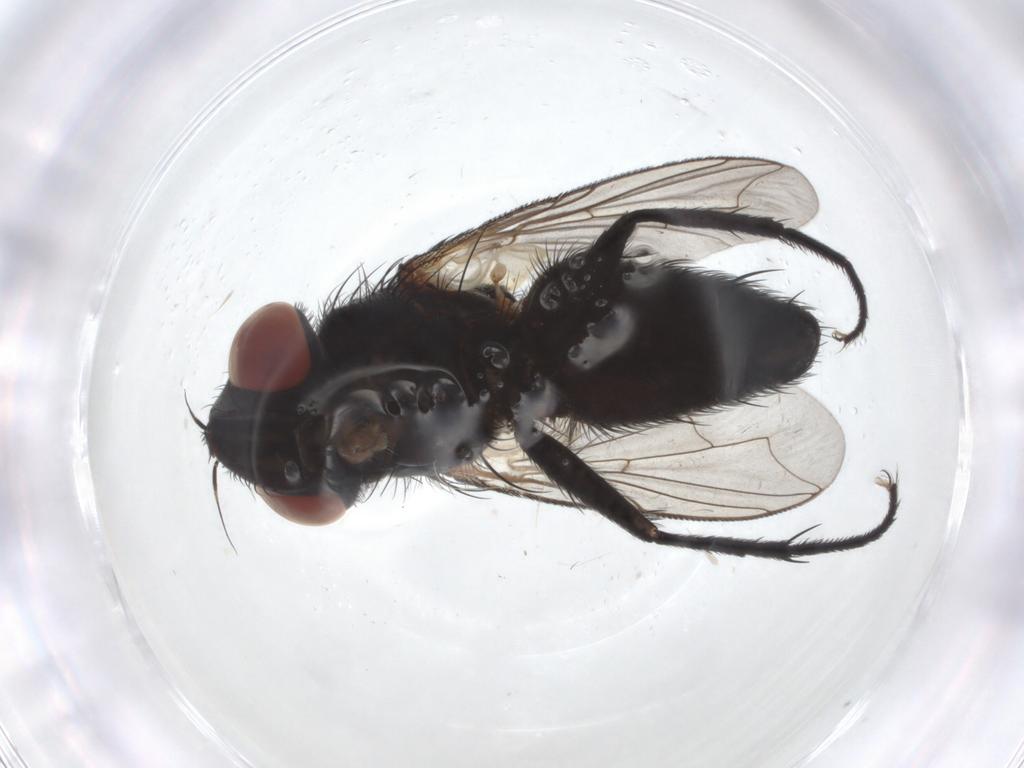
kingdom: Animalia
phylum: Arthropoda
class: Insecta
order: Diptera
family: Sarcophagidae
